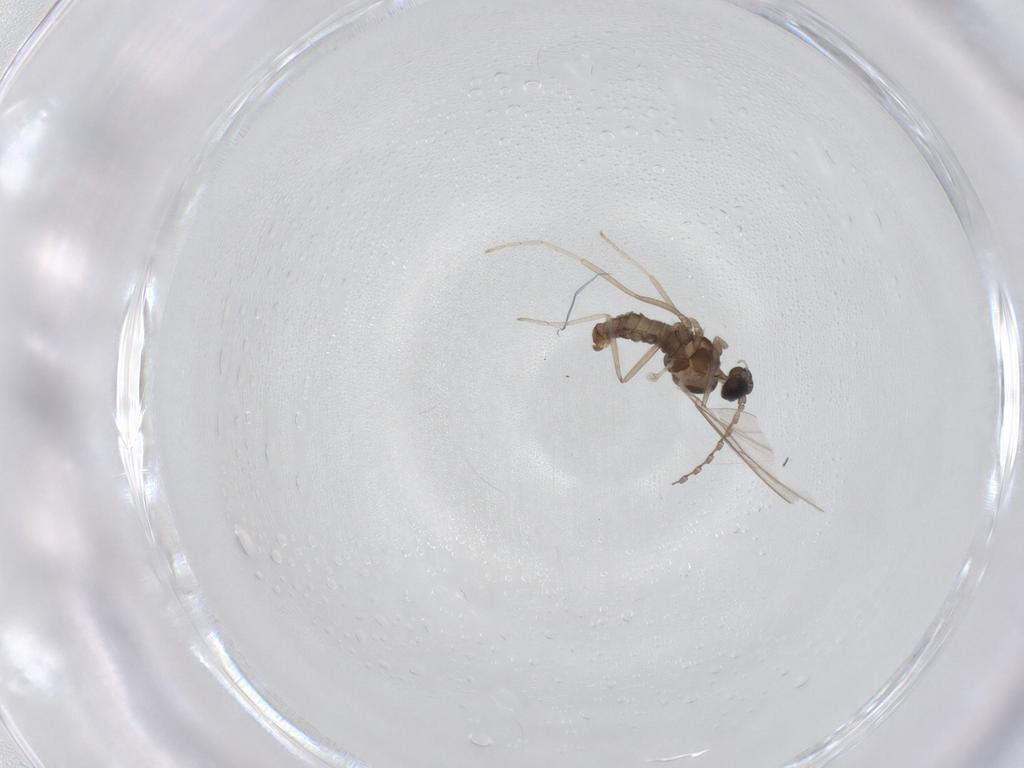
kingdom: Animalia
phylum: Arthropoda
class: Insecta
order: Diptera
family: Cecidomyiidae
